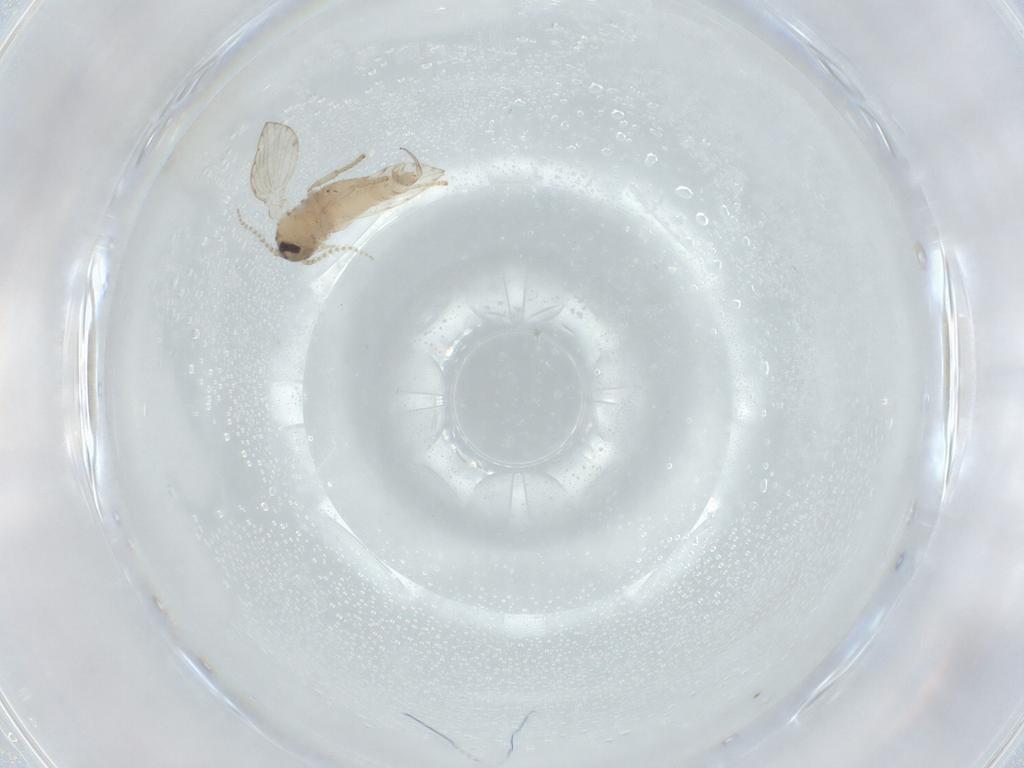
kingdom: Animalia
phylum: Arthropoda
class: Insecta
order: Diptera
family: Psychodidae
